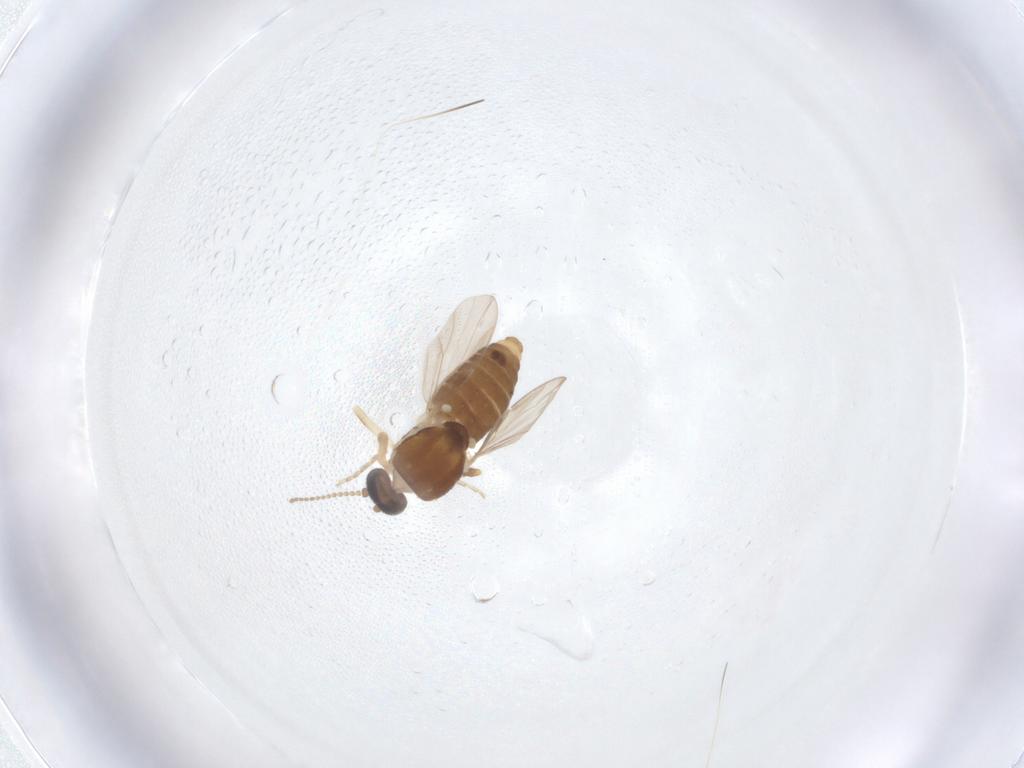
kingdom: Animalia
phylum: Arthropoda
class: Insecta
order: Diptera
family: Ceratopogonidae
